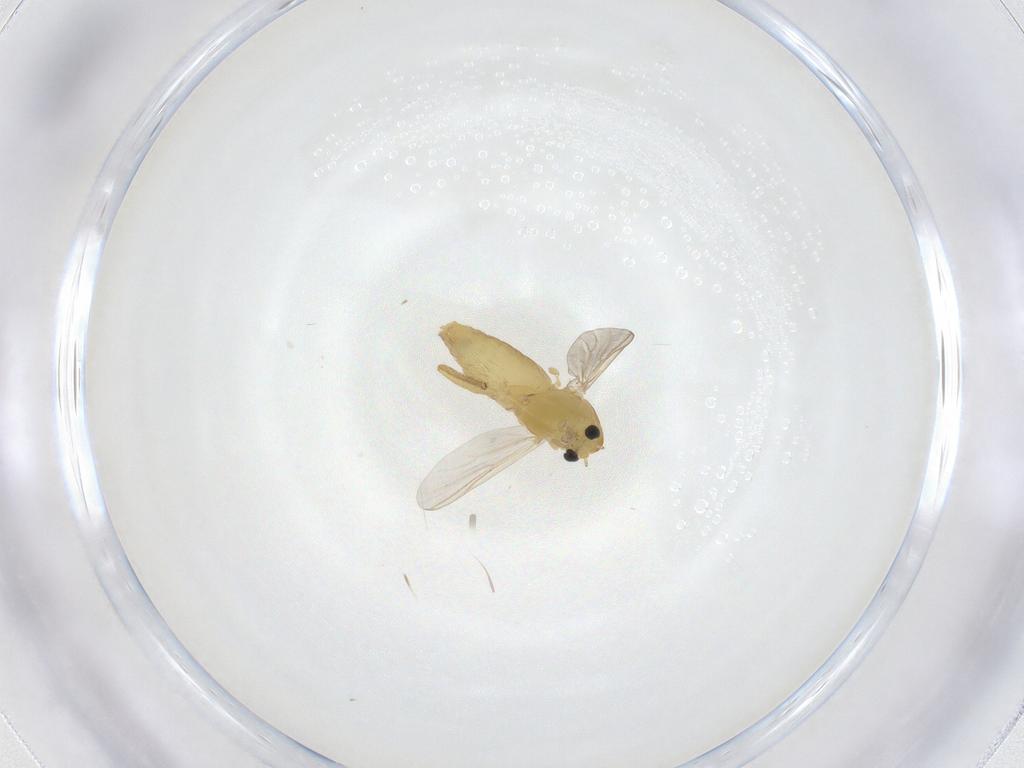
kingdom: Animalia
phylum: Arthropoda
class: Insecta
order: Diptera
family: Chironomidae
